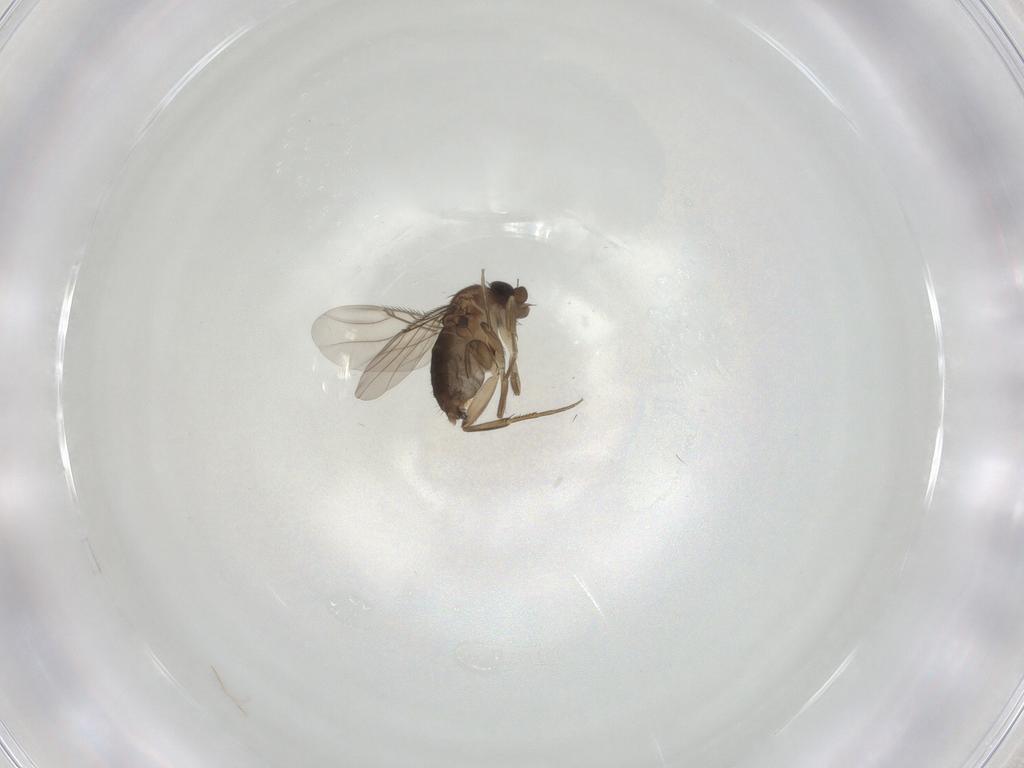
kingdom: Animalia
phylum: Arthropoda
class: Insecta
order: Diptera
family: Phoridae
